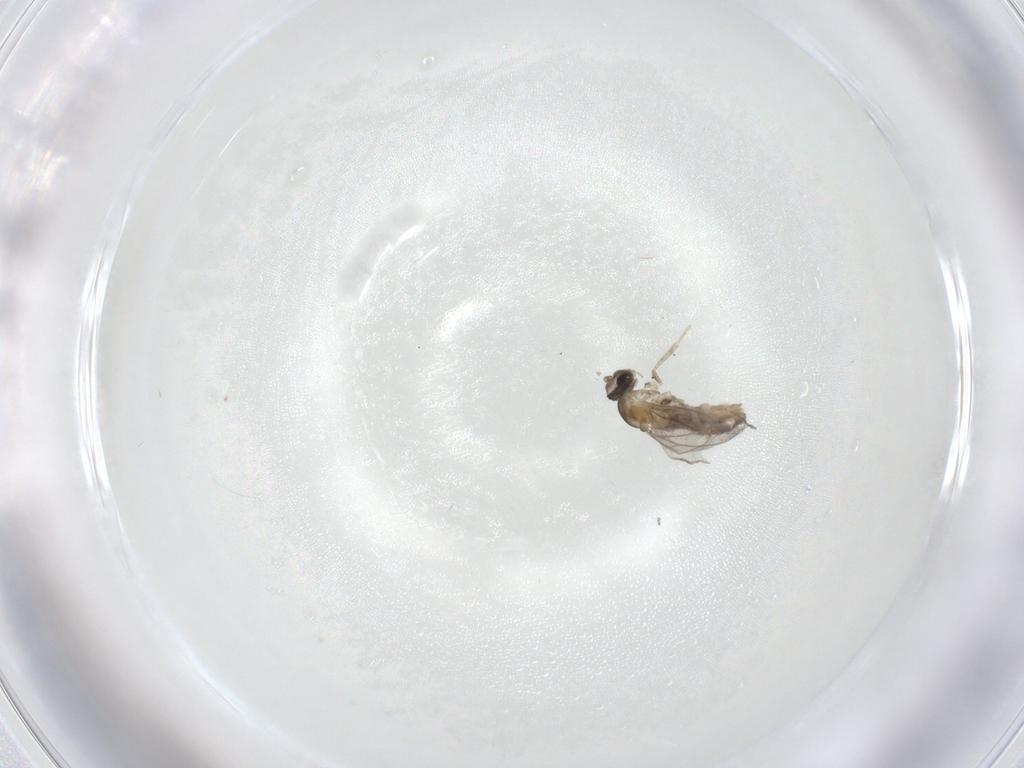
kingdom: Animalia
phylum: Arthropoda
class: Insecta
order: Diptera
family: Cecidomyiidae
